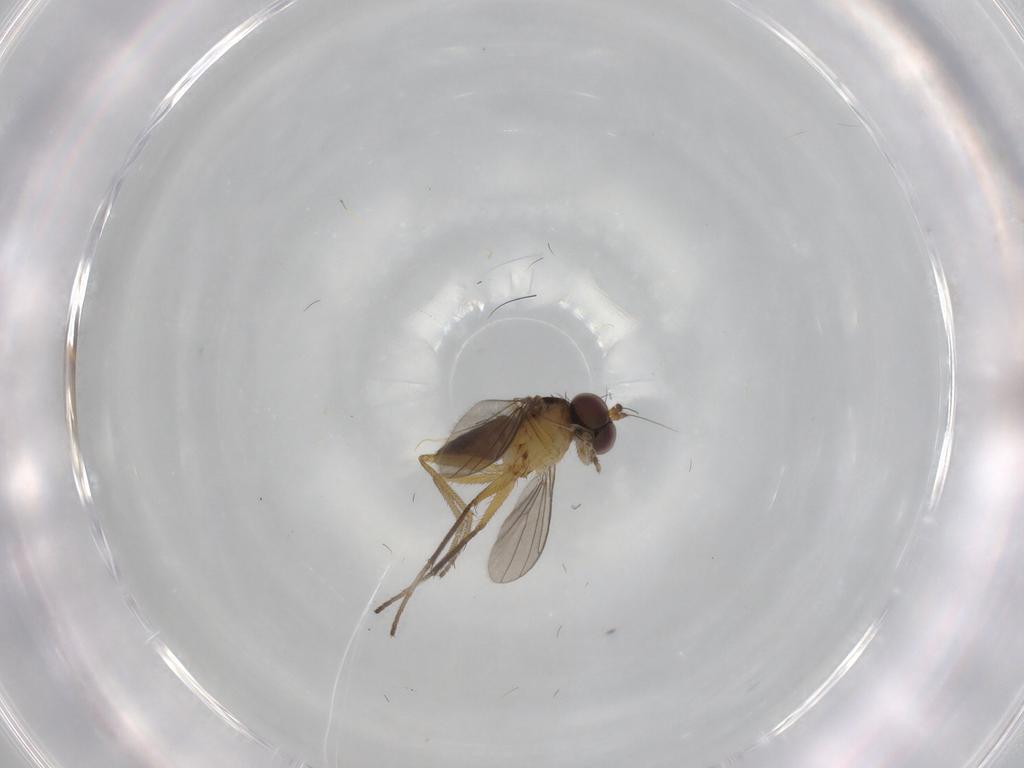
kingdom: Animalia
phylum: Arthropoda
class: Insecta
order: Diptera
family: Dolichopodidae
